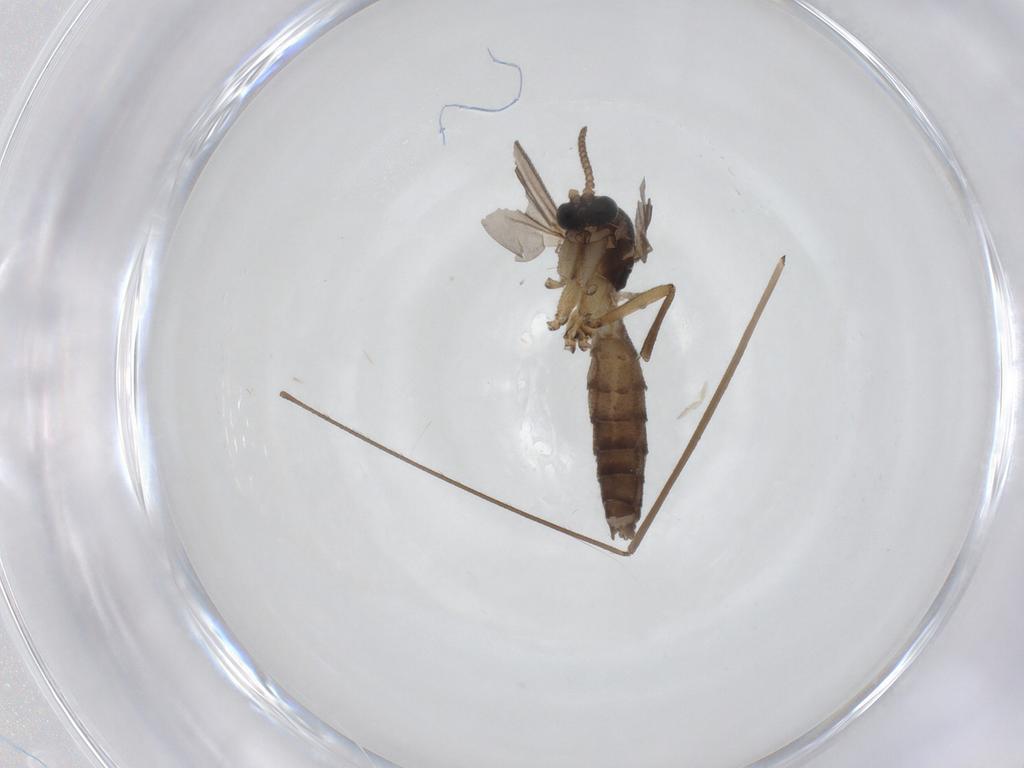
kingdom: Animalia
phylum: Arthropoda
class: Insecta
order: Diptera
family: Mycetophilidae
